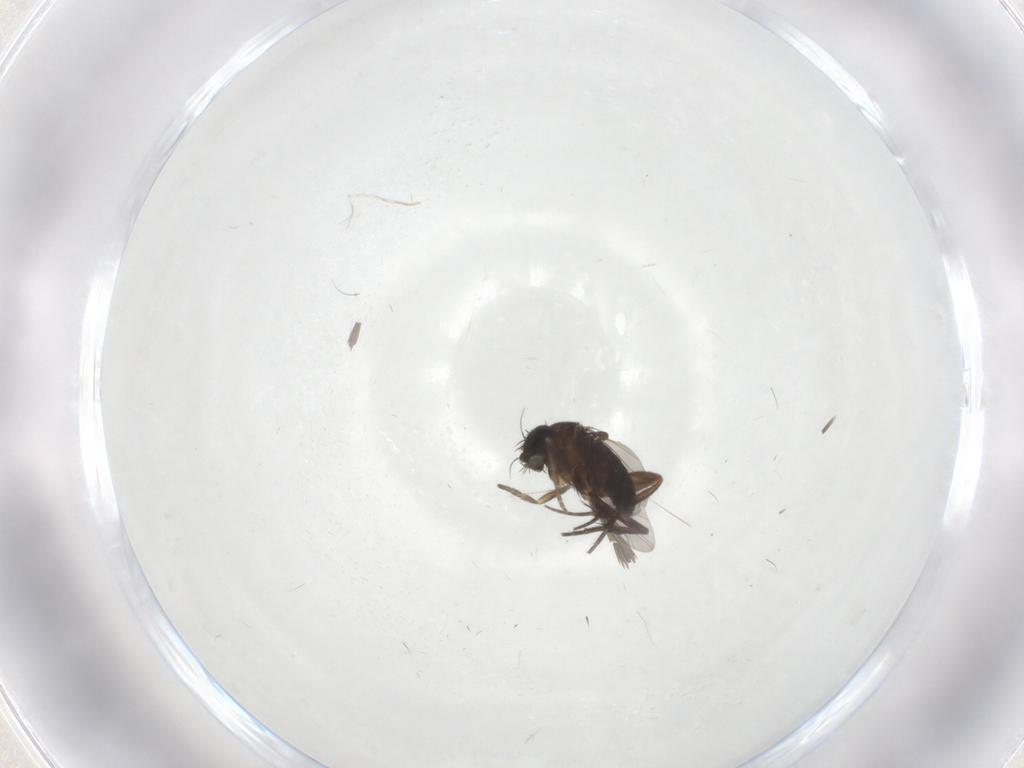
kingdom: Animalia
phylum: Arthropoda
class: Insecta
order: Diptera
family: Phoridae
